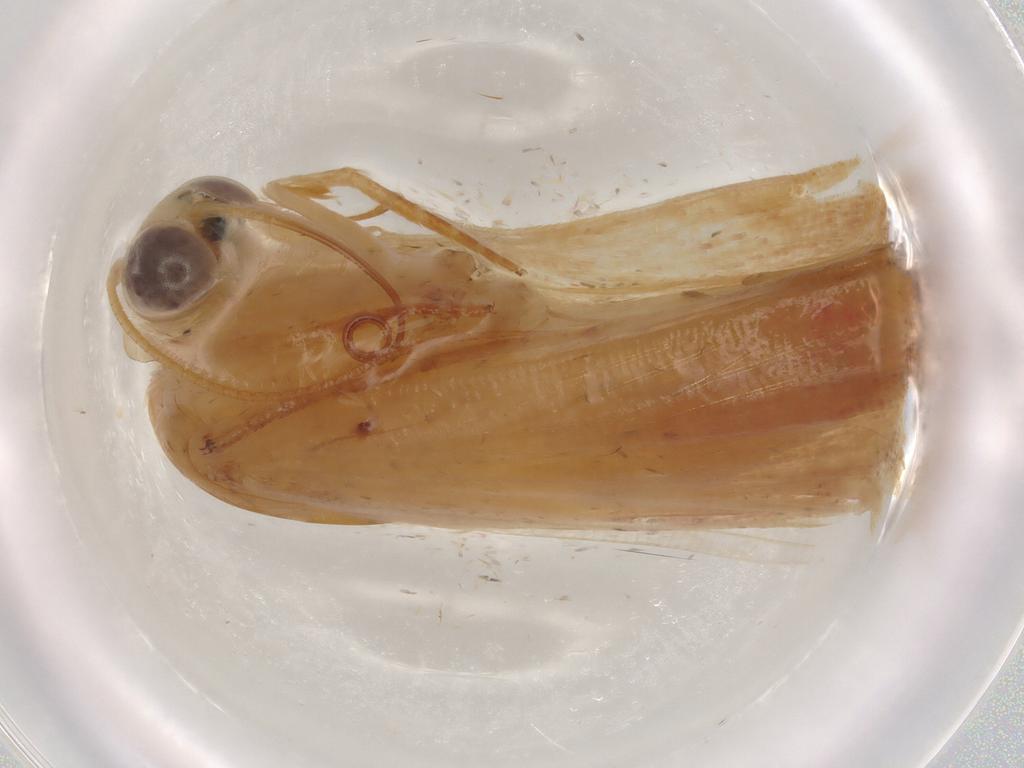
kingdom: Animalia
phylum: Arthropoda
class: Insecta
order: Lepidoptera
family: Noctuidae
